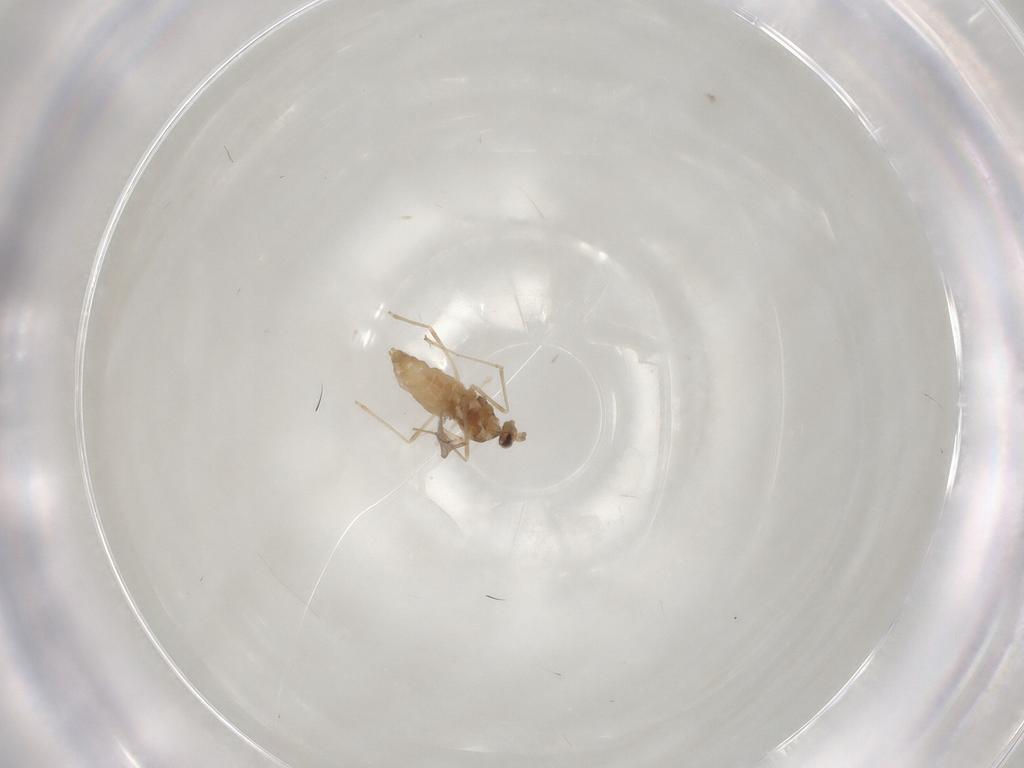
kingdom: Animalia
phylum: Arthropoda
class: Insecta
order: Diptera
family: Cecidomyiidae
